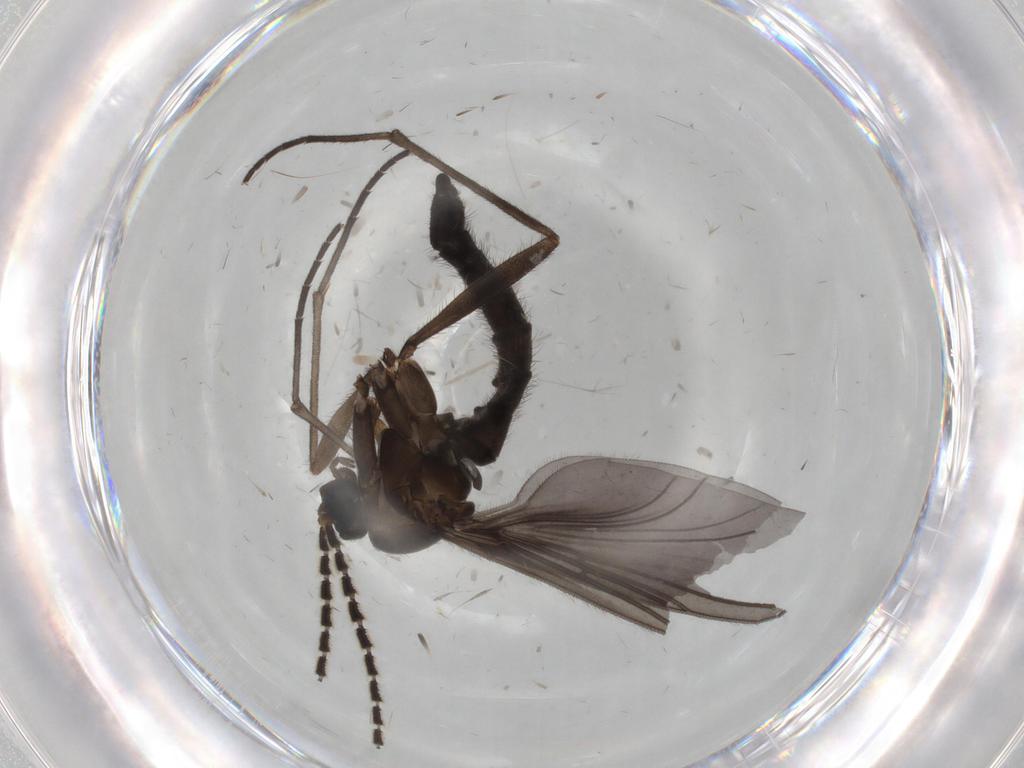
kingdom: Animalia
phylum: Arthropoda
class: Insecta
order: Diptera
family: Sciaridae
